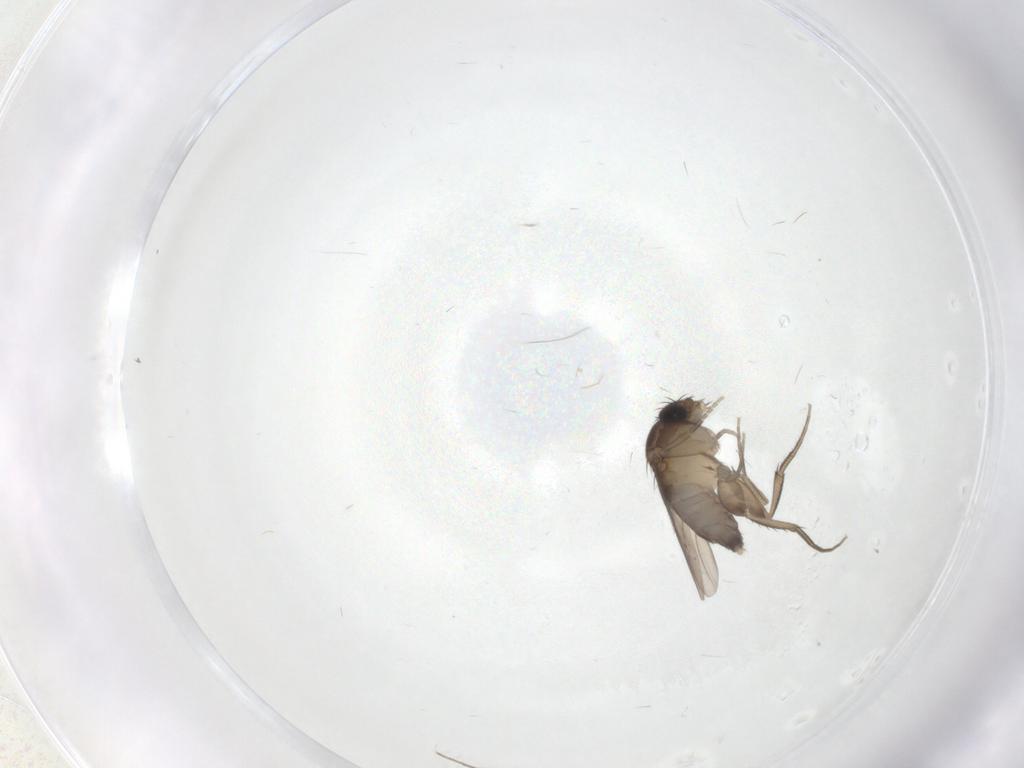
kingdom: Animalia
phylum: Arthropoda
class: Insecta
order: Diptera
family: Phoridae
